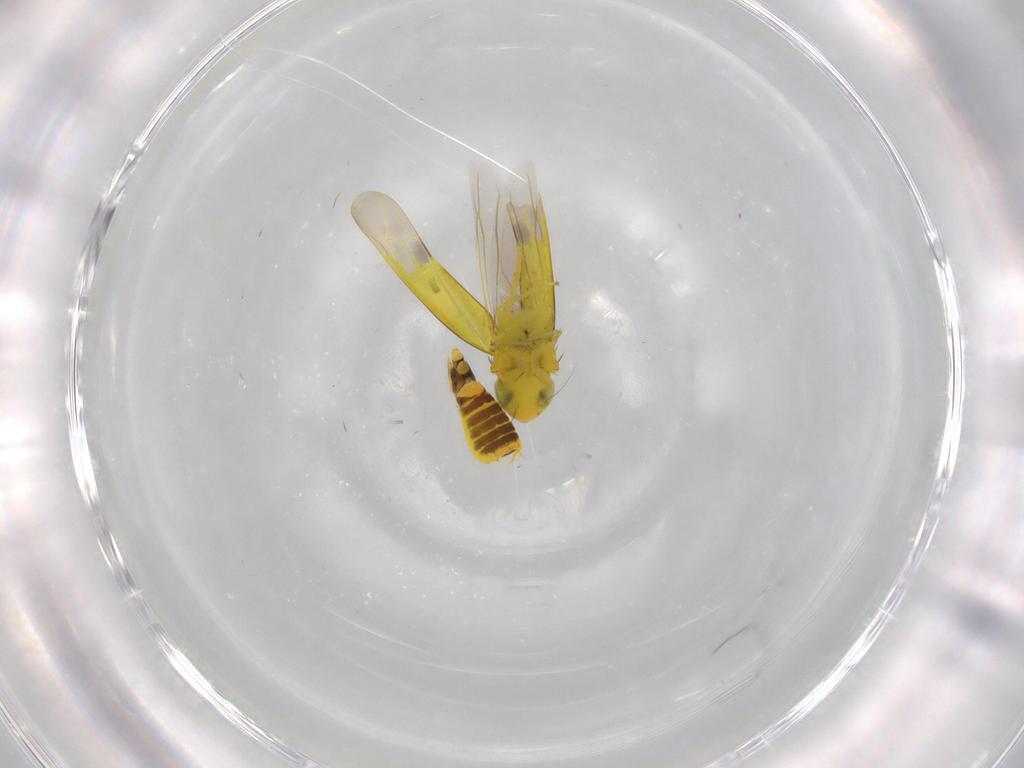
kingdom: Animalia
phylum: Arthropoda
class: Insecta
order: Hemiptera
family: Cicadellidae
